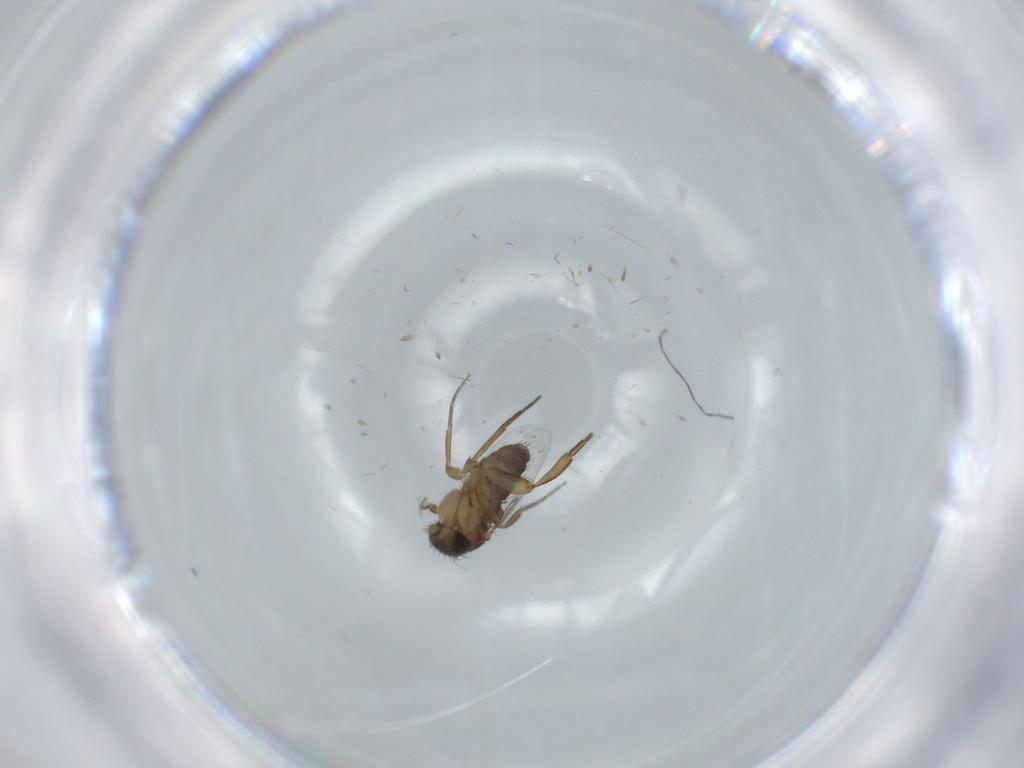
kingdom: Animalia
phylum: Arthropoda
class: Insecta
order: Diptera
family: Phoridae
